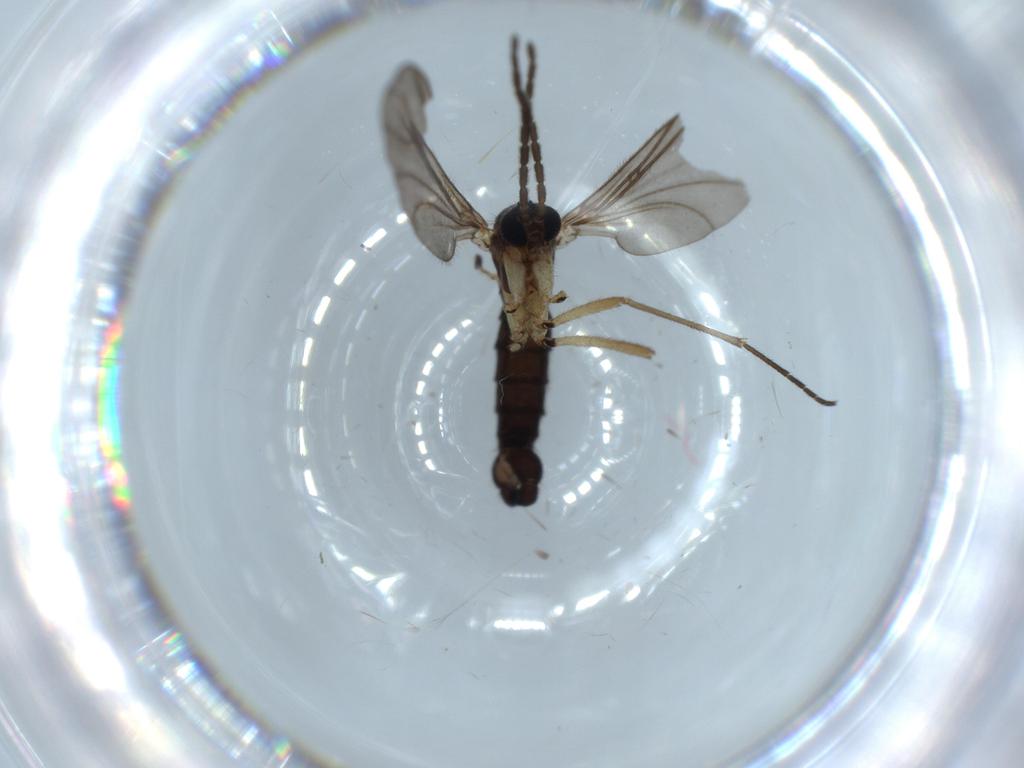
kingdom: Animalia
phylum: Arthropoda
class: Insecta
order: Diptera
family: Sciaridae
